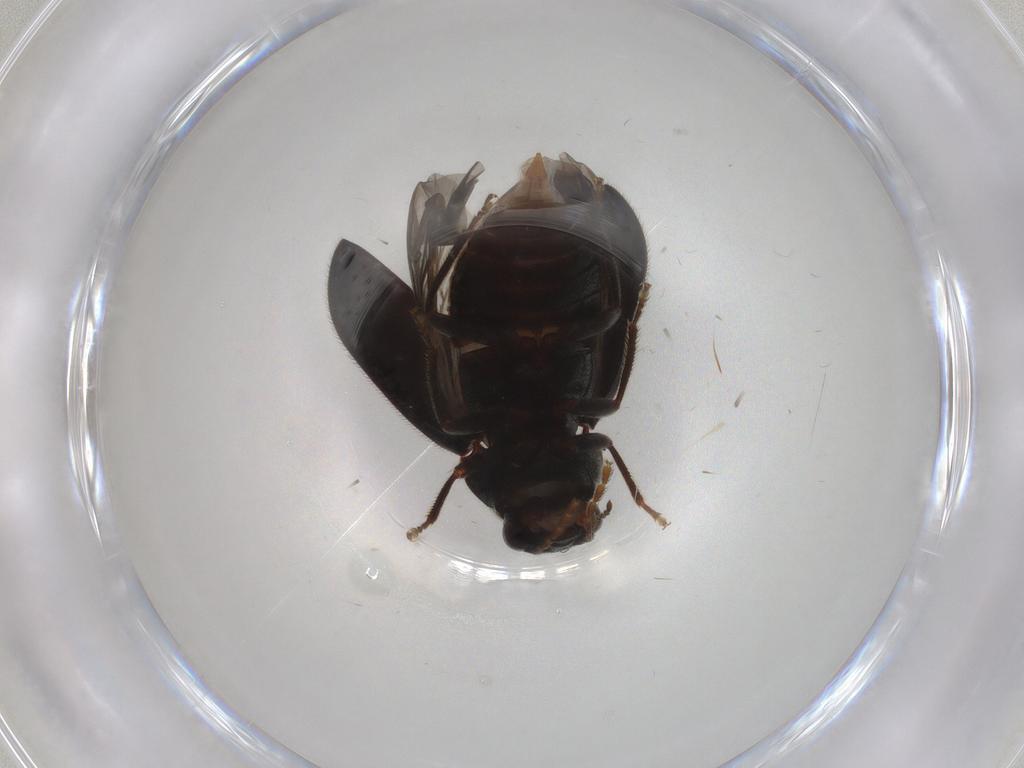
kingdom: Animalia
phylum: Arthropoda
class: Insecta
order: Coleoptera
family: Ptilodactylidae
